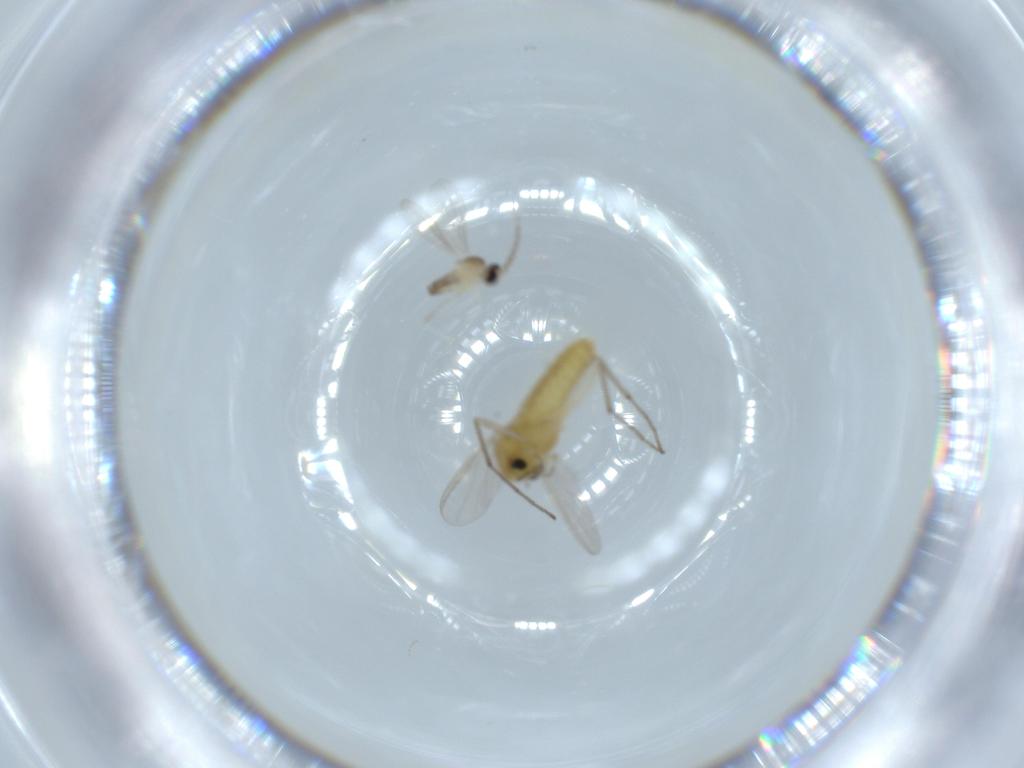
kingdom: Animalia
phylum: Arthropoda
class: Insecta
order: Diptera
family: Chironomidae
